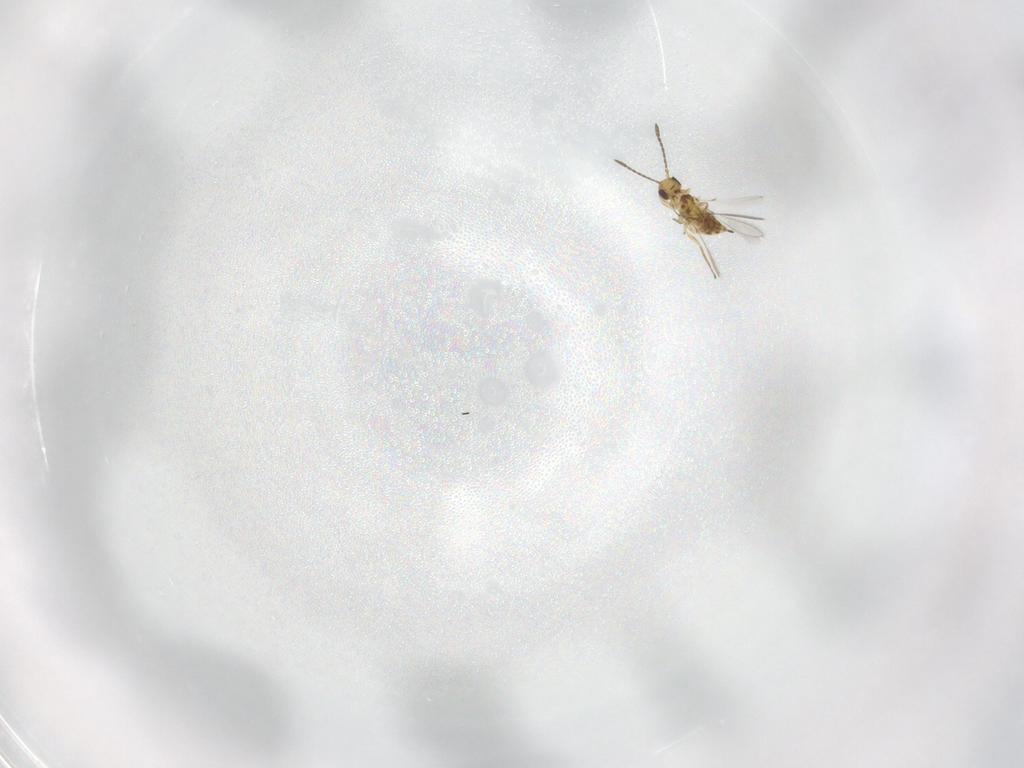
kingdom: Animalia
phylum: Arthropoda
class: Insecta
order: Hymenoptera
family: Mymaridae
